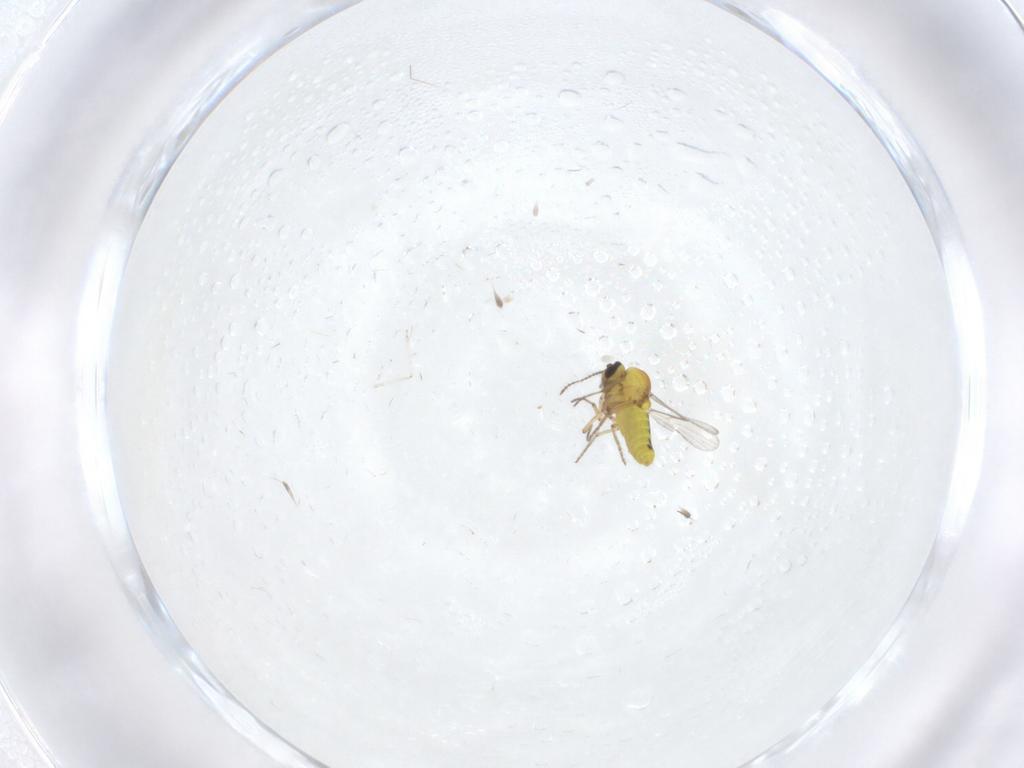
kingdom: Animalia
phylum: Arthropoda
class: Insecta
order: Diptera
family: Ceratopogonidae
